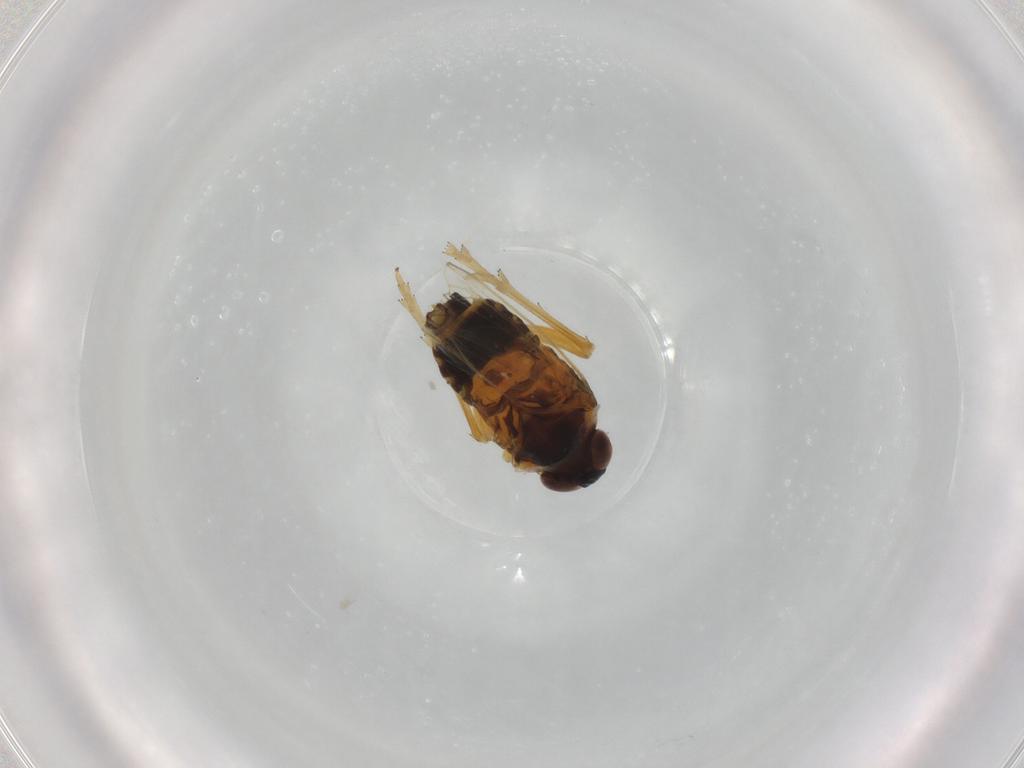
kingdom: Animalia
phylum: Arthropoda
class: Insecta
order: Hemiptera
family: Delphacidae
